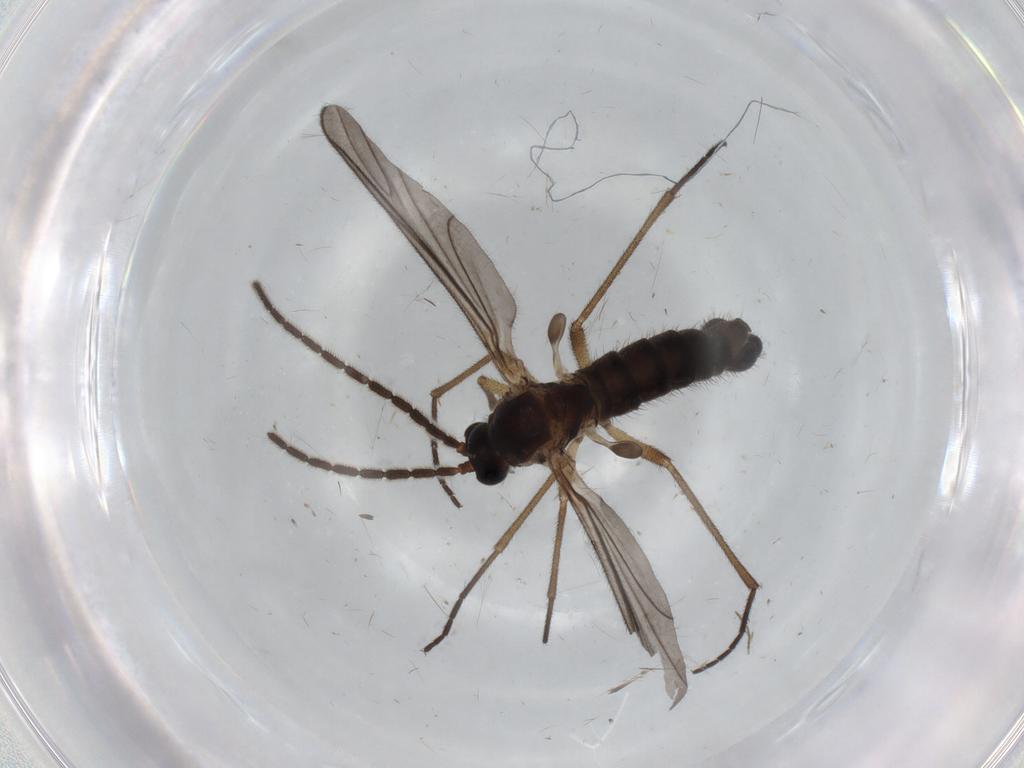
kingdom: Animalia
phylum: Arthropoda
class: Insecta
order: Diptera
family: Sciaridae
